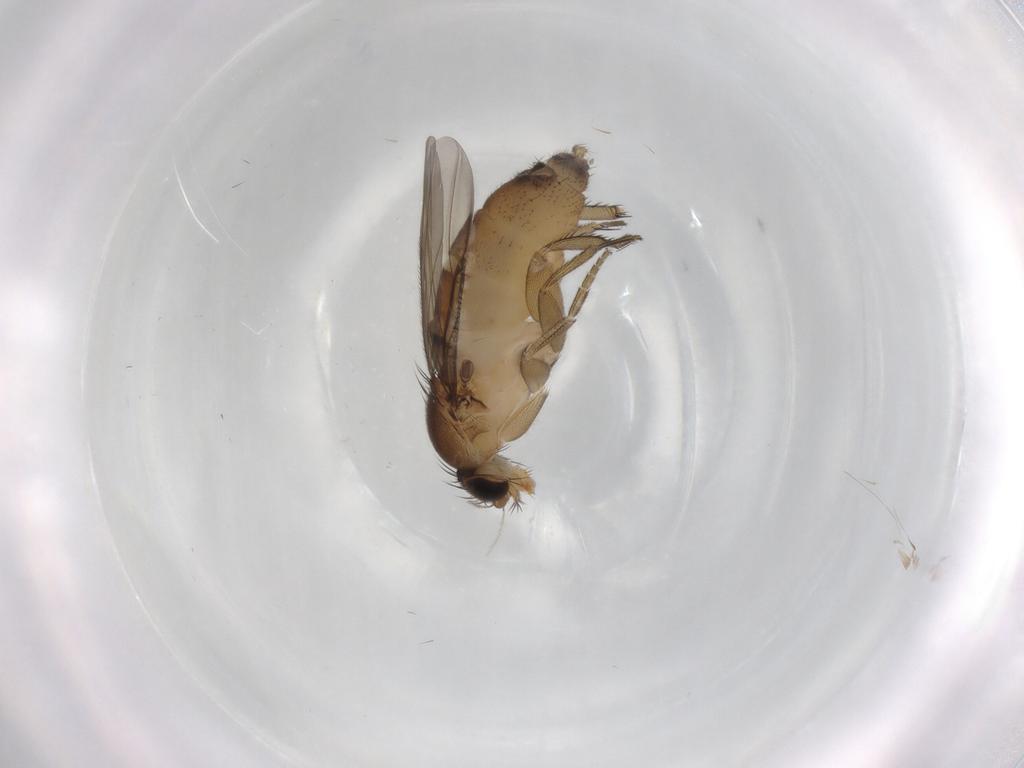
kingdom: Animalia
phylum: Arthropoda
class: Insecta
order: Diptera
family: Phoridae
